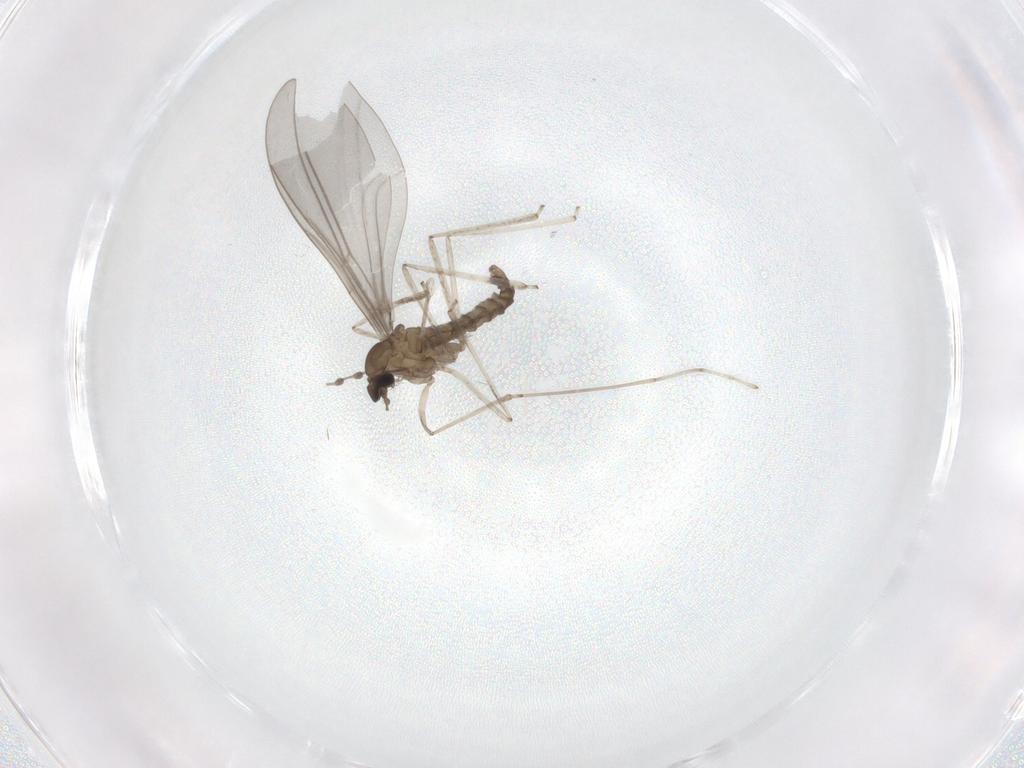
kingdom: Animalia
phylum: Arthropoda
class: Insecta
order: Diptera
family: Cecidomyiidae
